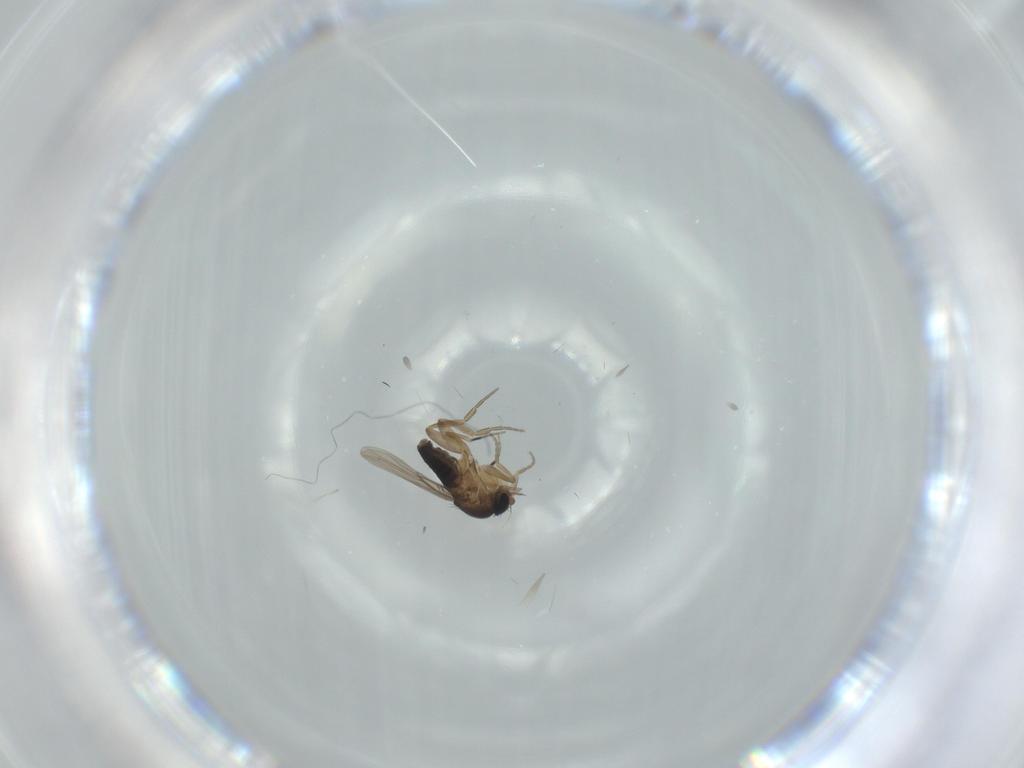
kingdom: Animalia
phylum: Arthropoda
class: Insecta
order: Diptera
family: Phoridae
